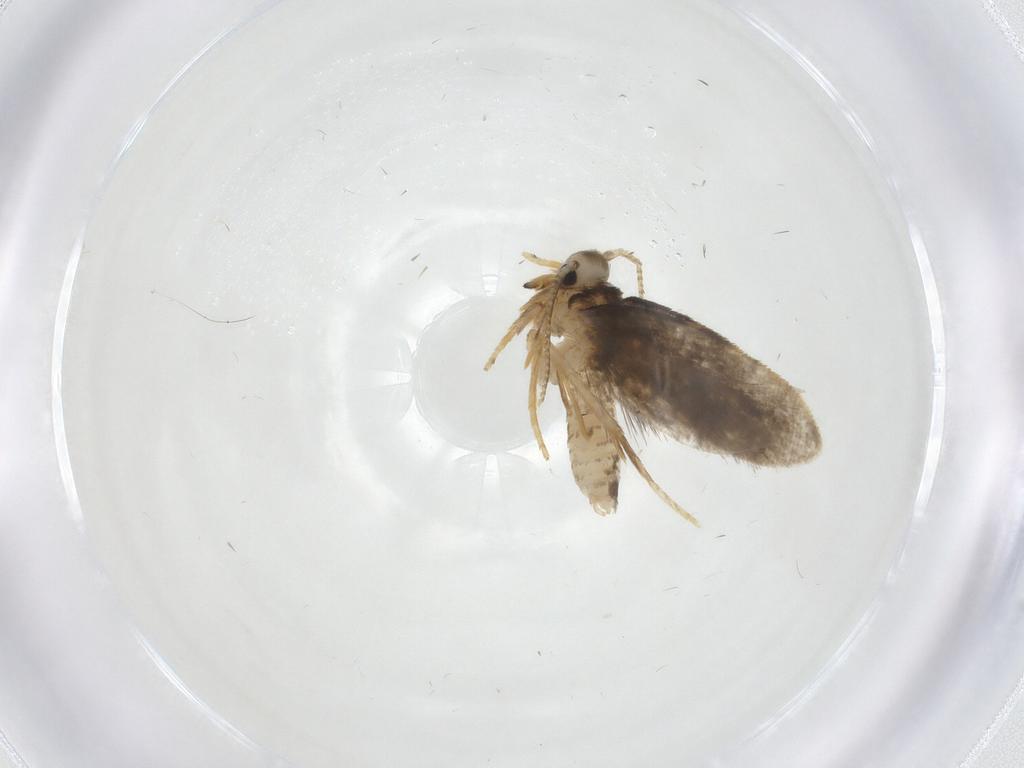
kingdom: Animalia
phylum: Arthropoda
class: Insecta
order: Lepidoptera
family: Psychidae
